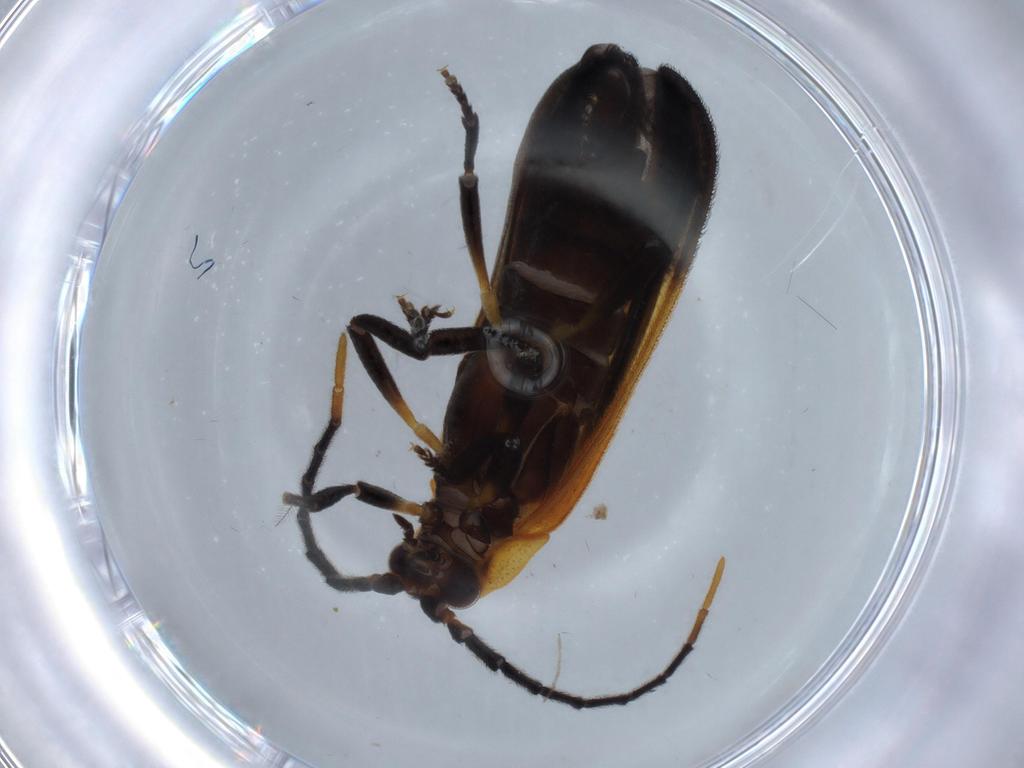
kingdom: Animalia
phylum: Arthropoda
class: Insecta
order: Coleoptera
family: Lycidae
